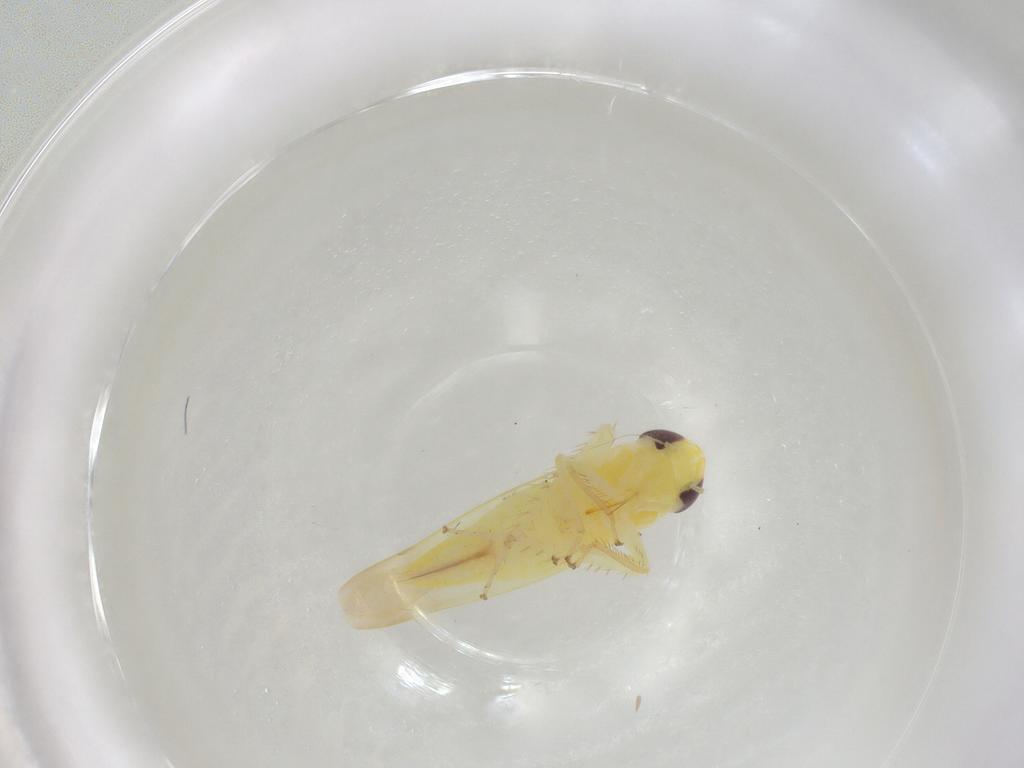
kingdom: Animalia
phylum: Arthropoda
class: Insecta
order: Hemiptera
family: Cicadellidae
